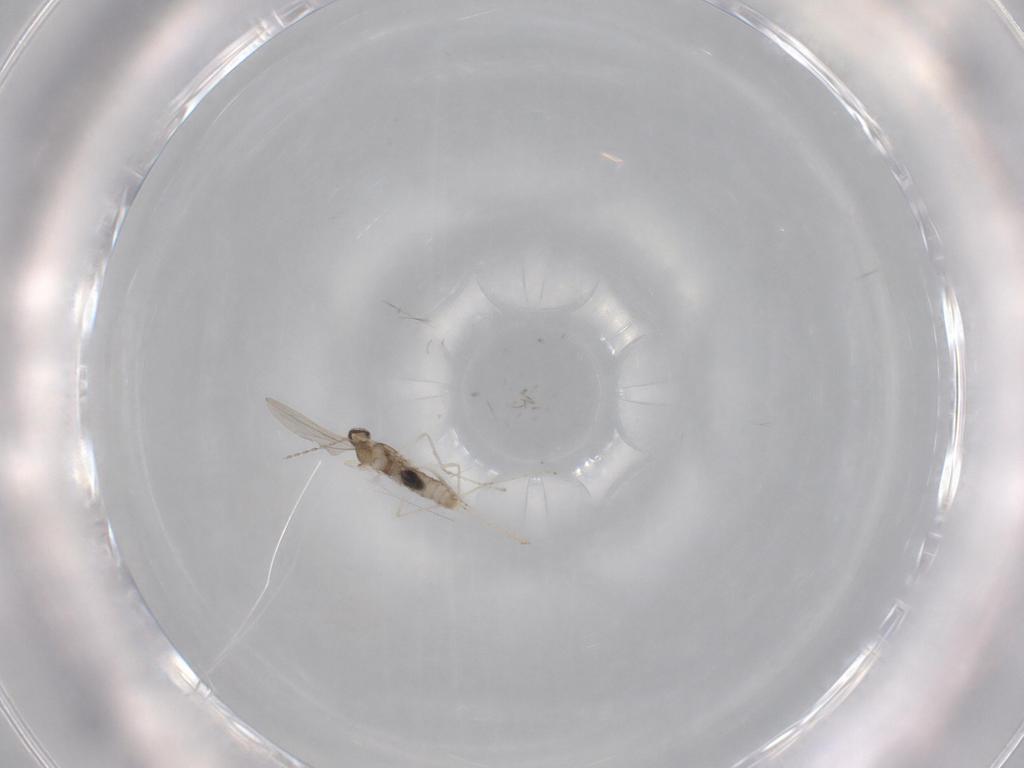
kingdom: Animalia
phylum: Arthropoda
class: Insecta
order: Diptera
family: Cecidomyiidae
